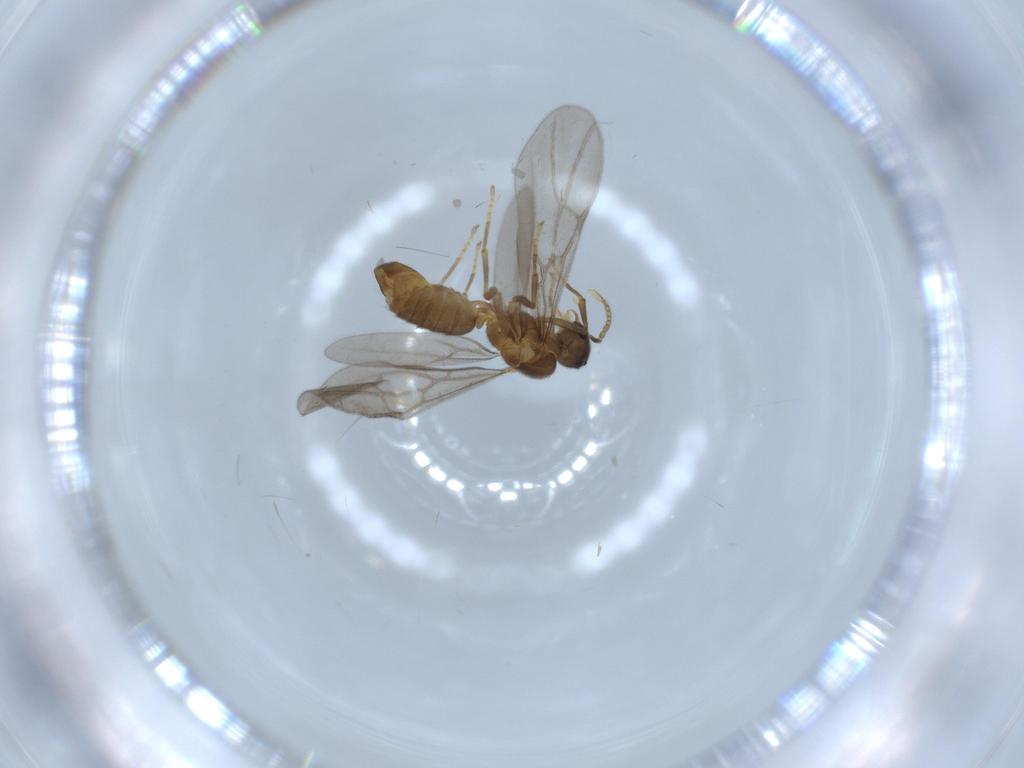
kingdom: Animalia
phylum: Arthropoda
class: Insecta
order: Hymenoptera
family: Formicidae
